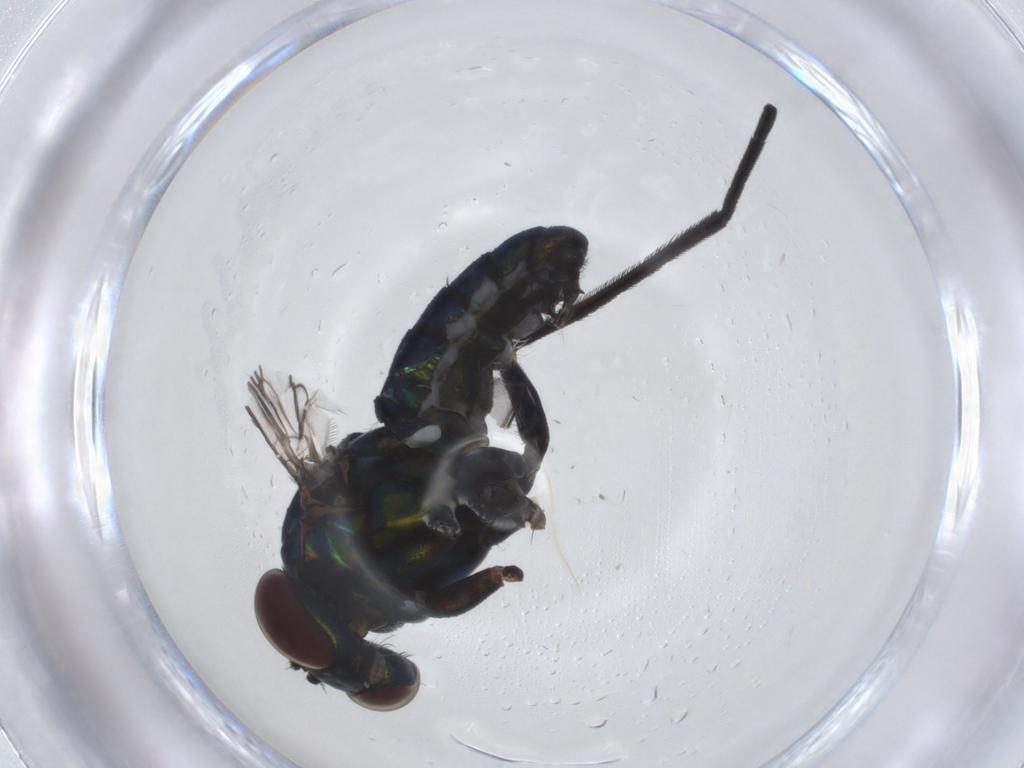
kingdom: Animalia
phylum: Arthropoda
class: Insecta
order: Diptera
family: Dolichopodidae
